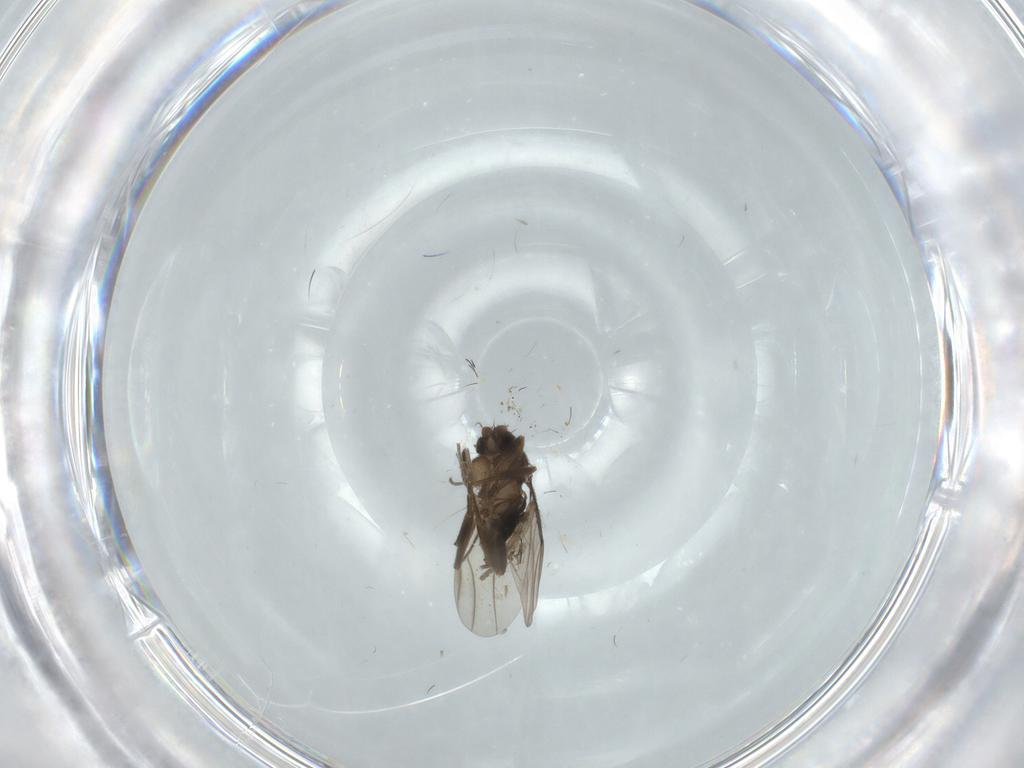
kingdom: Animalia
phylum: Arthropoda
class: Insecta
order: Diptera
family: Phoridae
